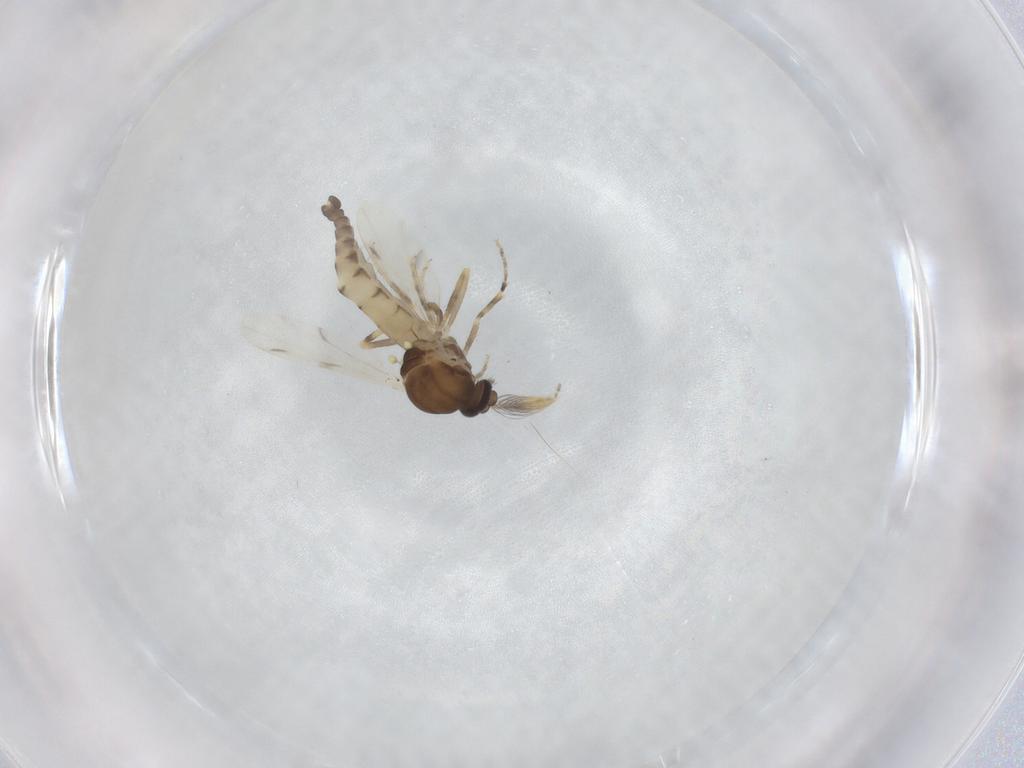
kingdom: Animalia
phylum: Arthropoda
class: Insecta
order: Diptera
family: Ceratopogonidae
